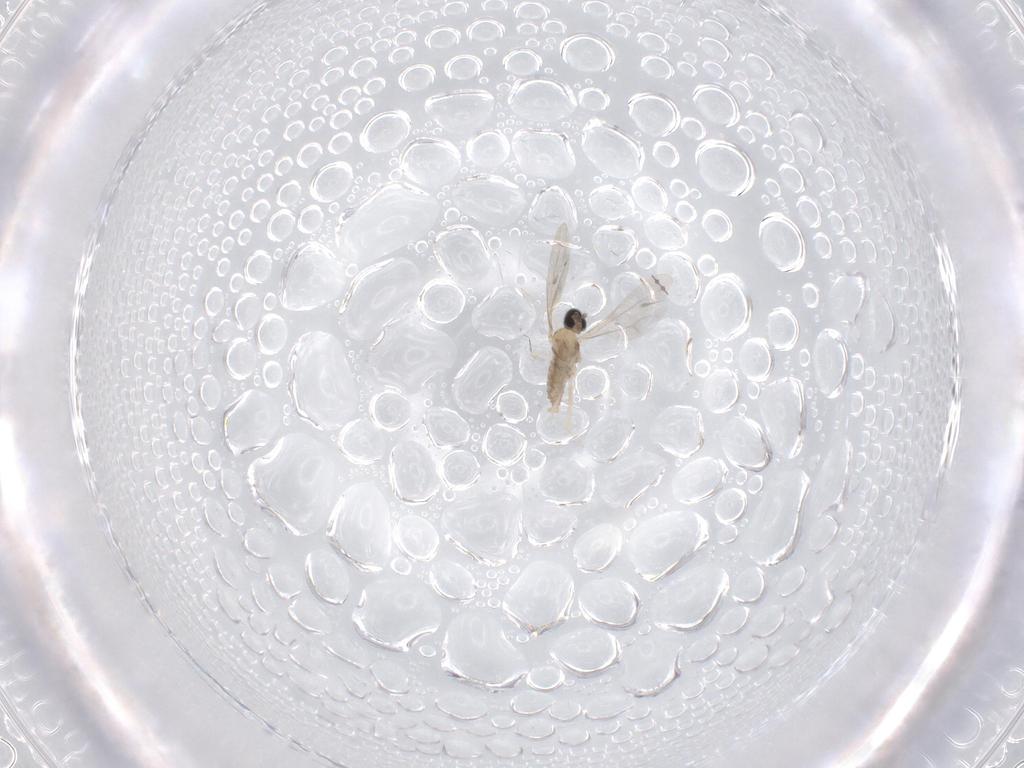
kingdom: Animalia
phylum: Arthropoda
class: Insecta
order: Diptera
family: Cecidomyiidae
